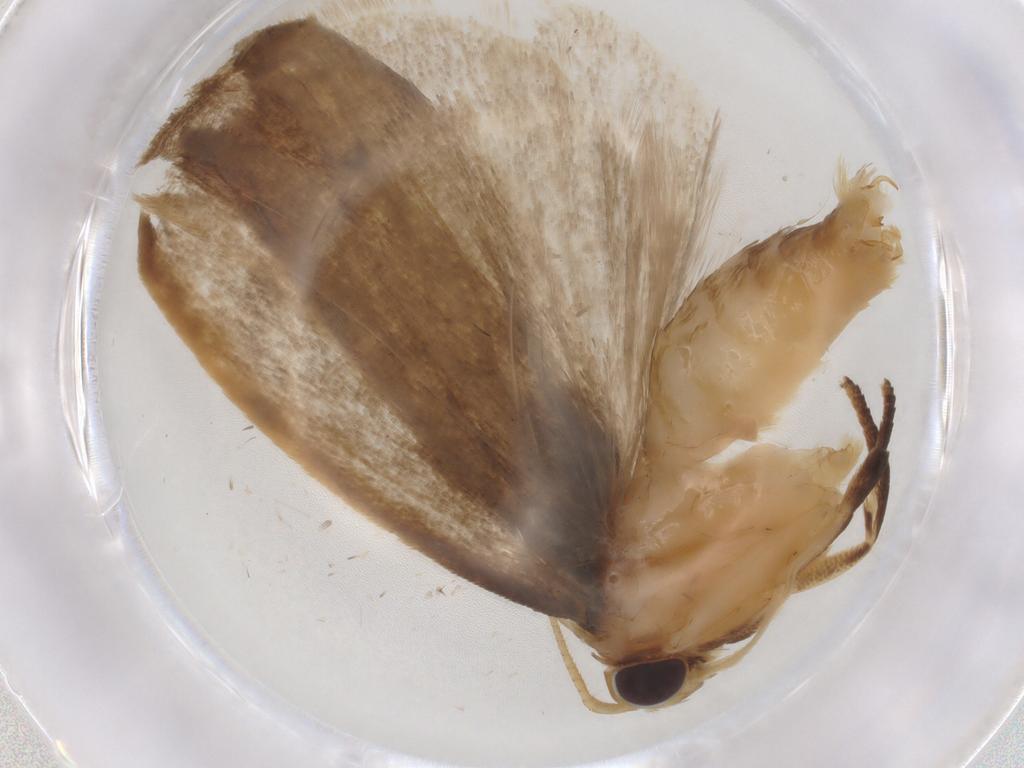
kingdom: Animalia
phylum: Arthropoda
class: Insecta
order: Lepidoptera
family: Depressariidae
